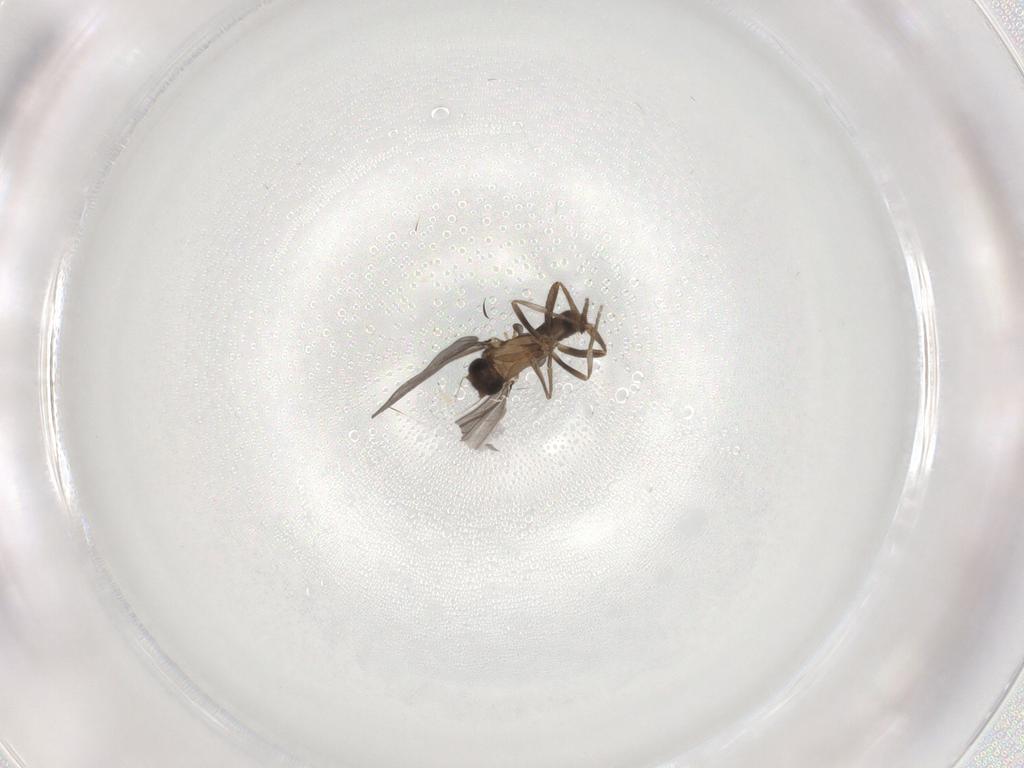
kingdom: Animalia
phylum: Arthropoda
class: Insecta
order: Diptera
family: Limoniidae
